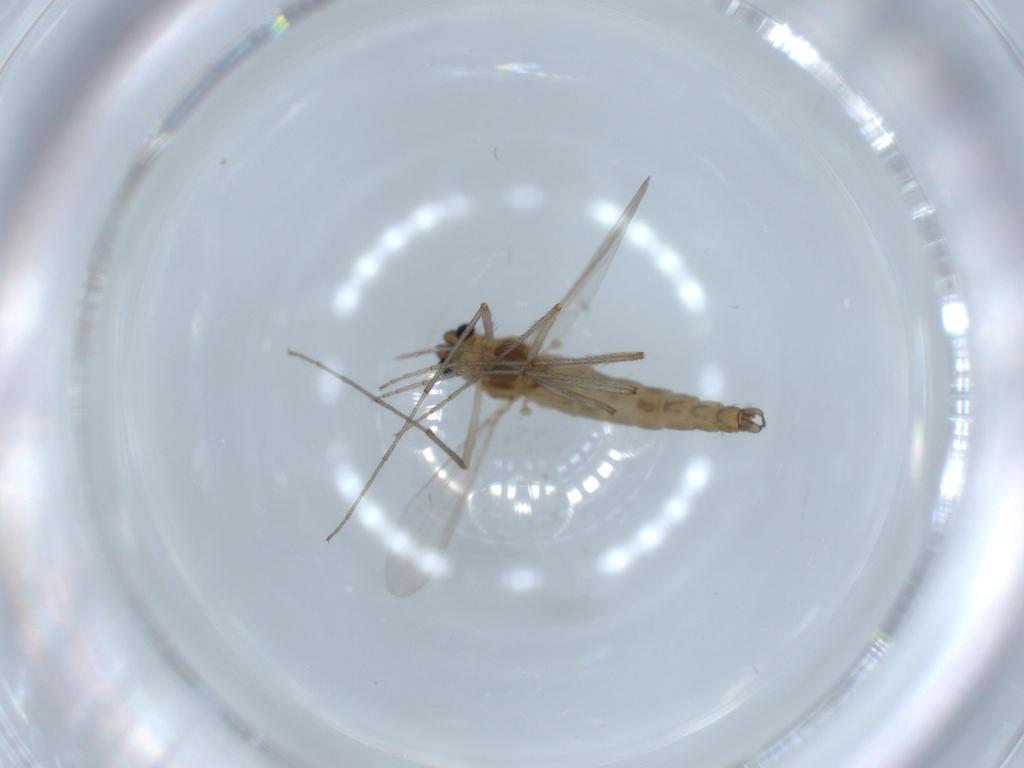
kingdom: Animalia
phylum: Arthropoda
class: Insecta
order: Diptera
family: Chironomidae
